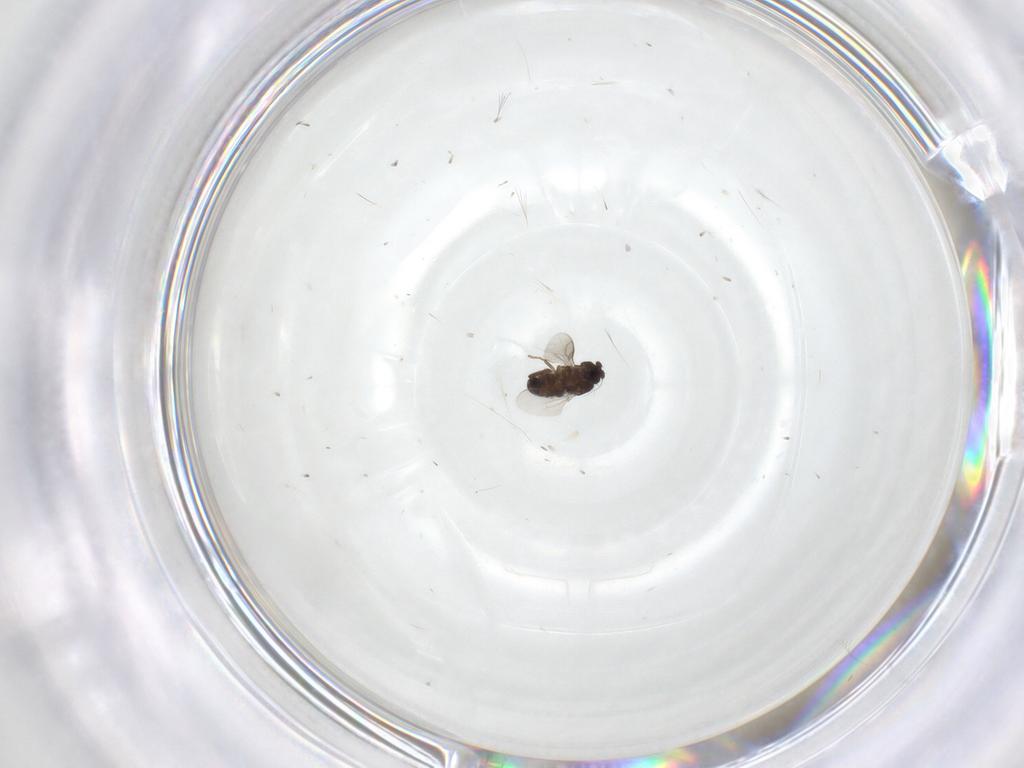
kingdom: Animalia
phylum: Arthropoda
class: Insecta
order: Diptera
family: Sphaeroceridae
